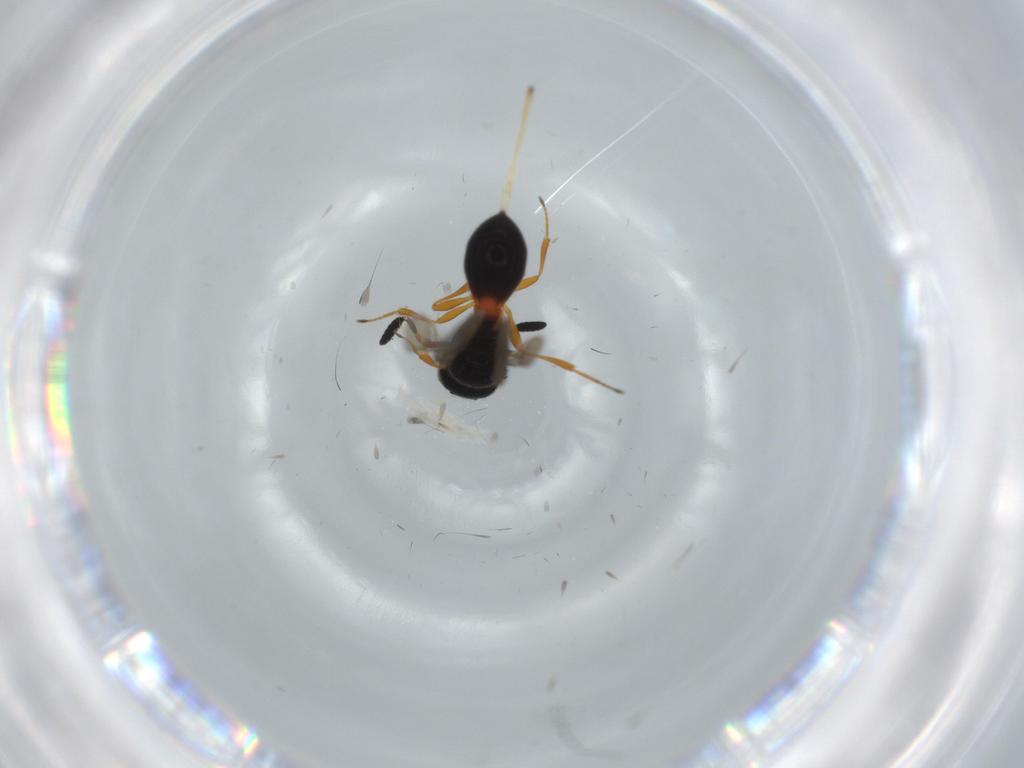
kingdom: Animalia
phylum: Arthropoda
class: Insecta
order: Hymenoptera
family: Scelionidae
